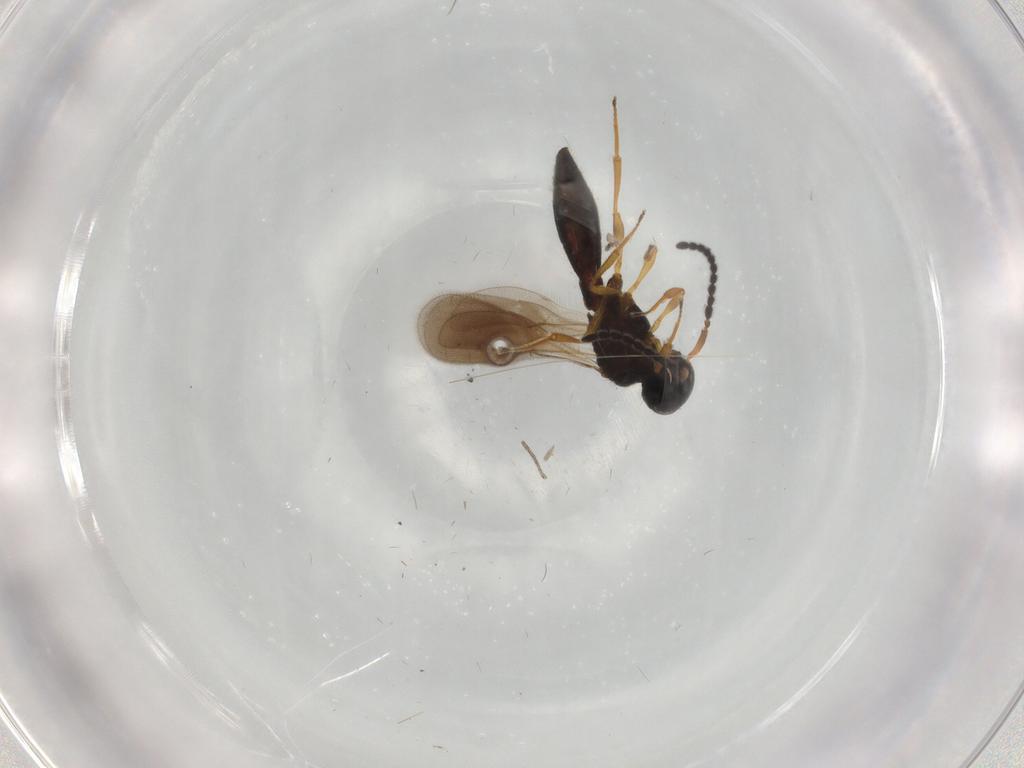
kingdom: Animalia
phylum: Arthropoda
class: Insecta
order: Hymenoptera
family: Scelionidae
